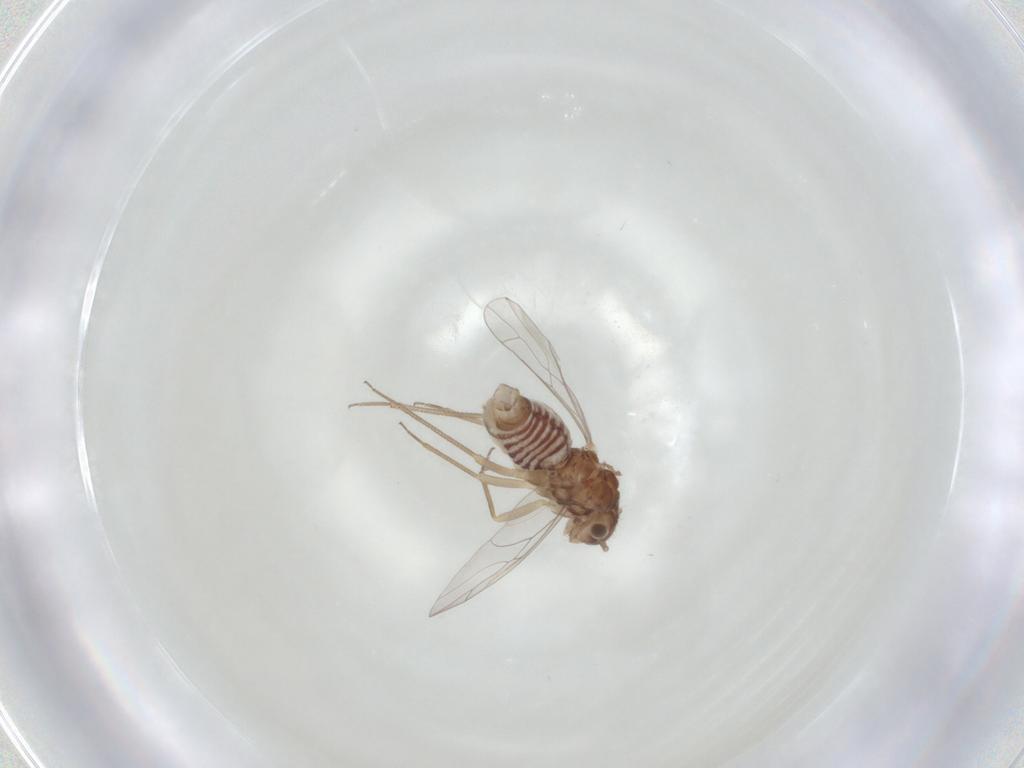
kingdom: Animalia
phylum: Arthropoda
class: Insecta
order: Psocodea
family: Lachesillidae
